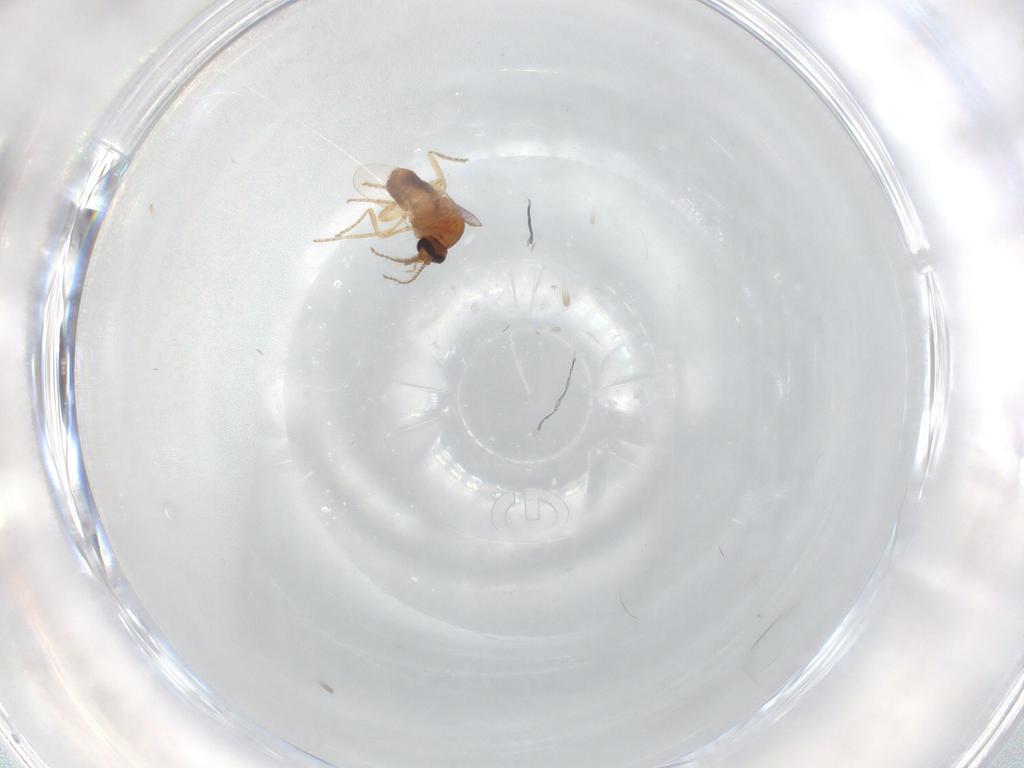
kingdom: Animalia
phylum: Arthropoda
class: Insecta
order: Diptera
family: Ceratopogonidae
